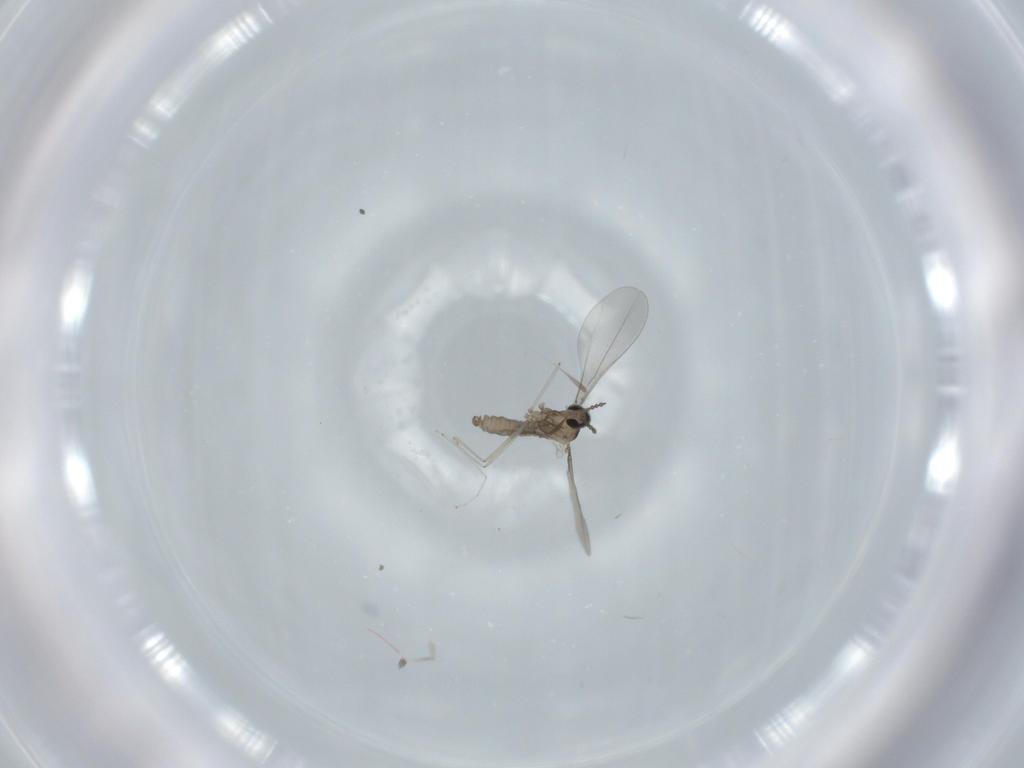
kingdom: Animalia
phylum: Arthropoda
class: Insecta
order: Diptera
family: Cecidomyiidae
